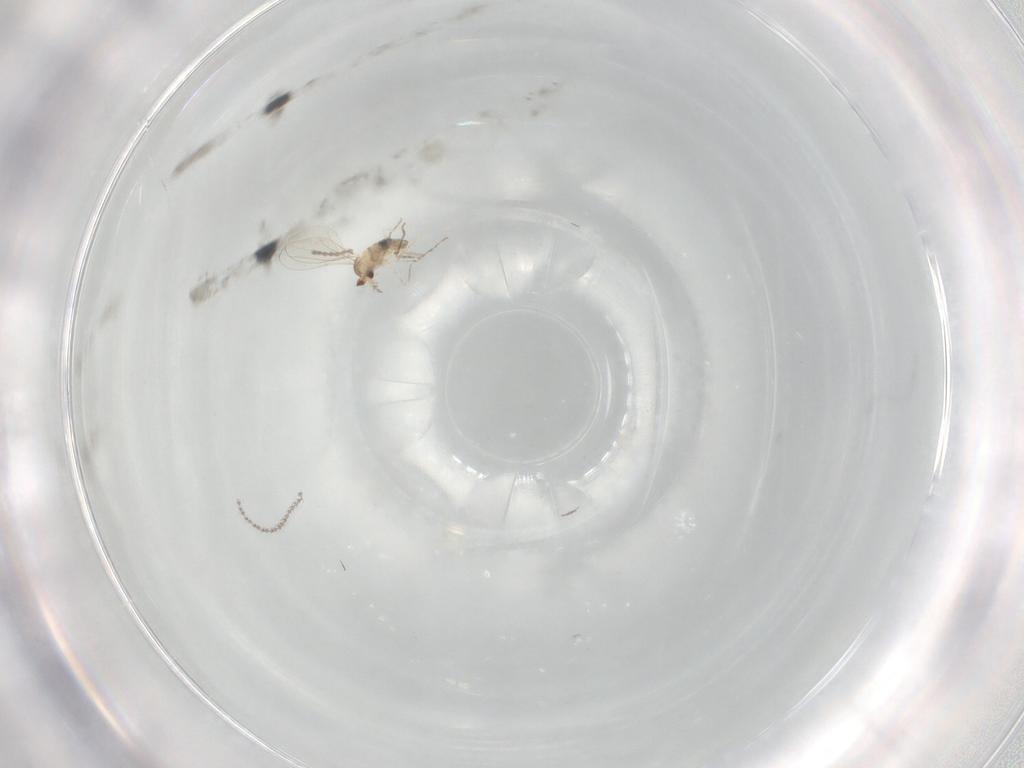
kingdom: Animalia
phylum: Arthropoda
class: Insecta
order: Diptera
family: Cecidomyiidae
